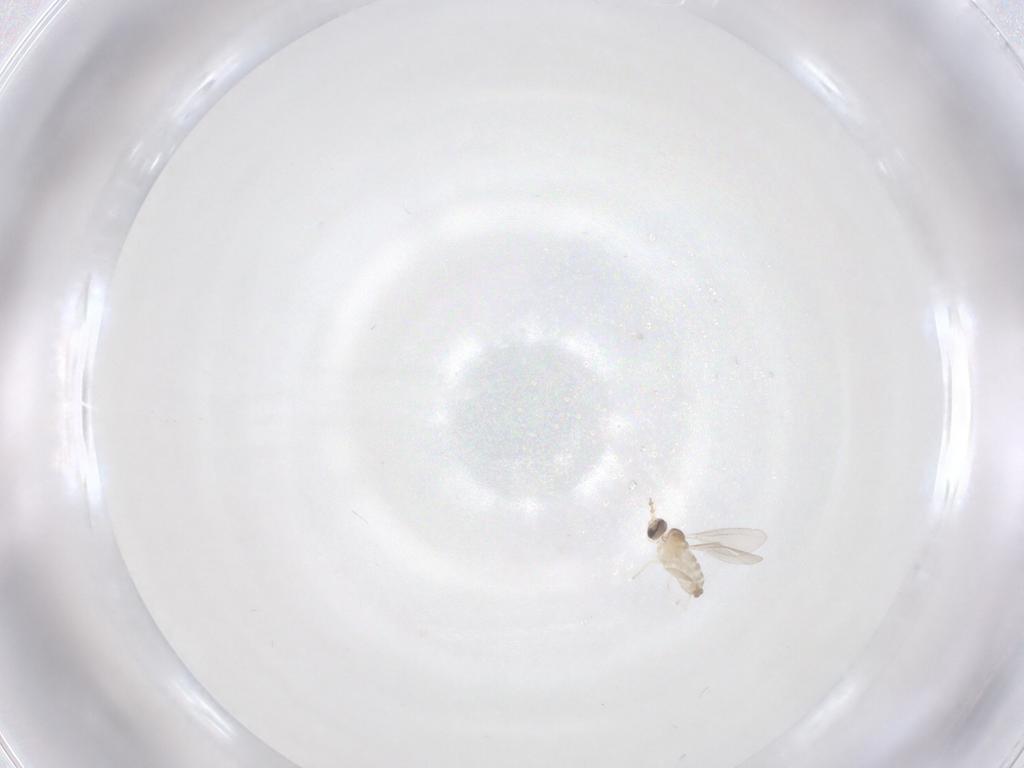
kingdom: Animalia
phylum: Arthropoda
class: Insecta
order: Diptera
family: Cecidomyiidae
